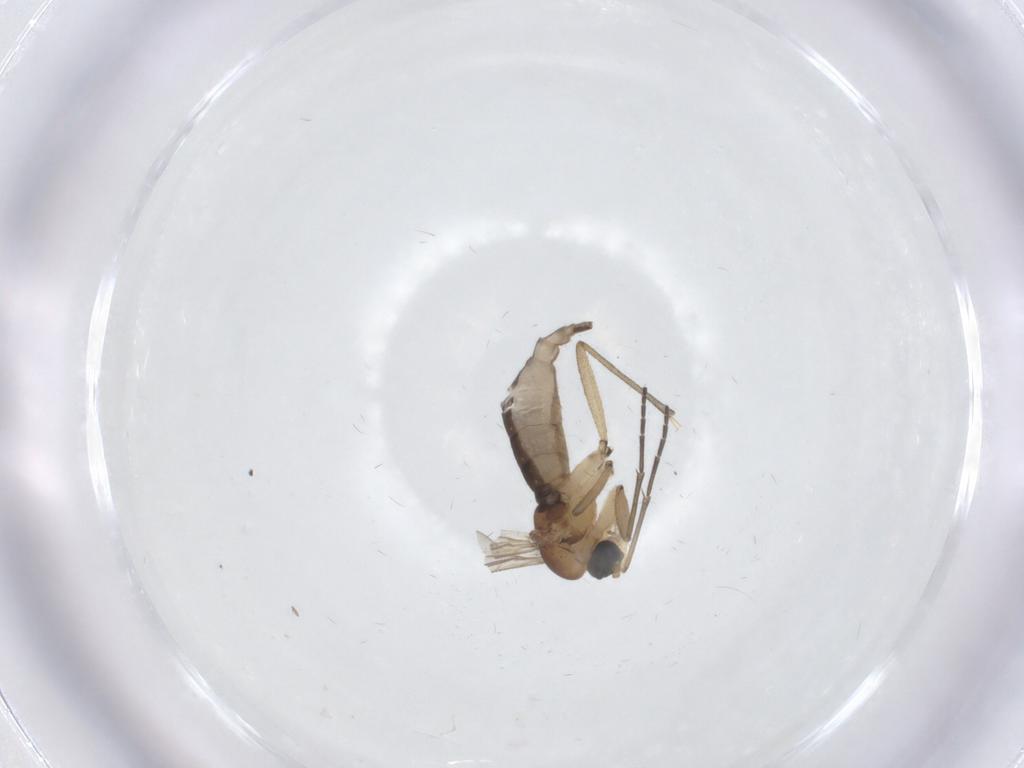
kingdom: Animalia
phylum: Arthropoda
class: Insecta
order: Diptera
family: Sciaridae
